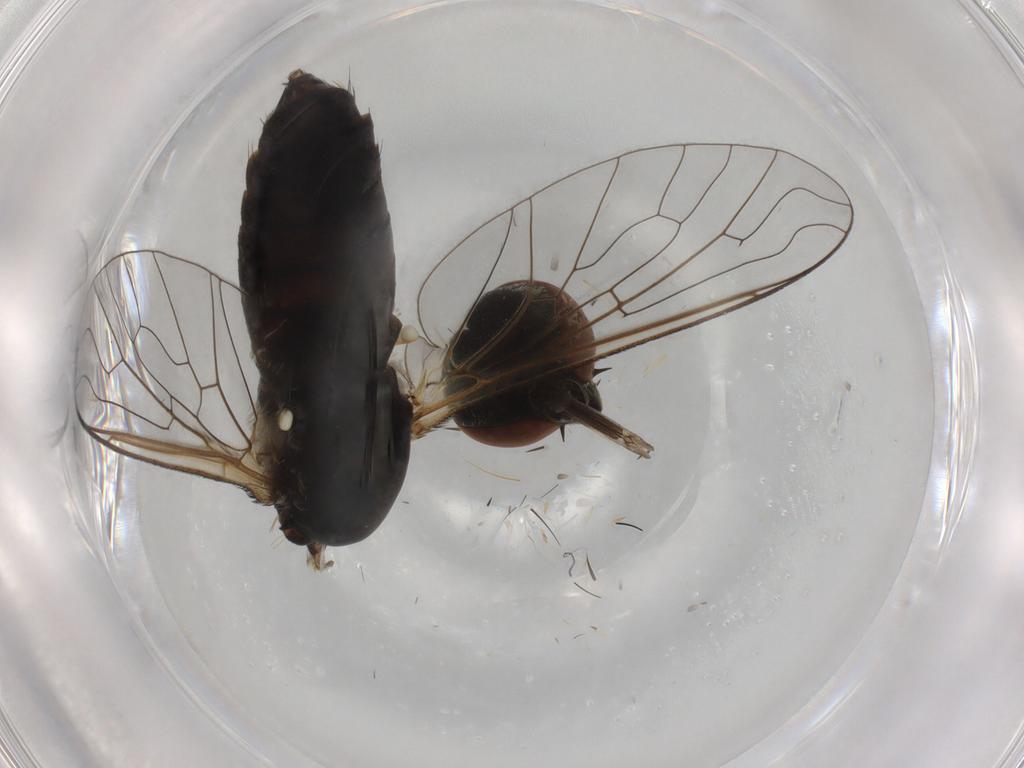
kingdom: Animalia
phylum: Arthropoda
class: Insecta
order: Diptera
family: Bombyliidae
